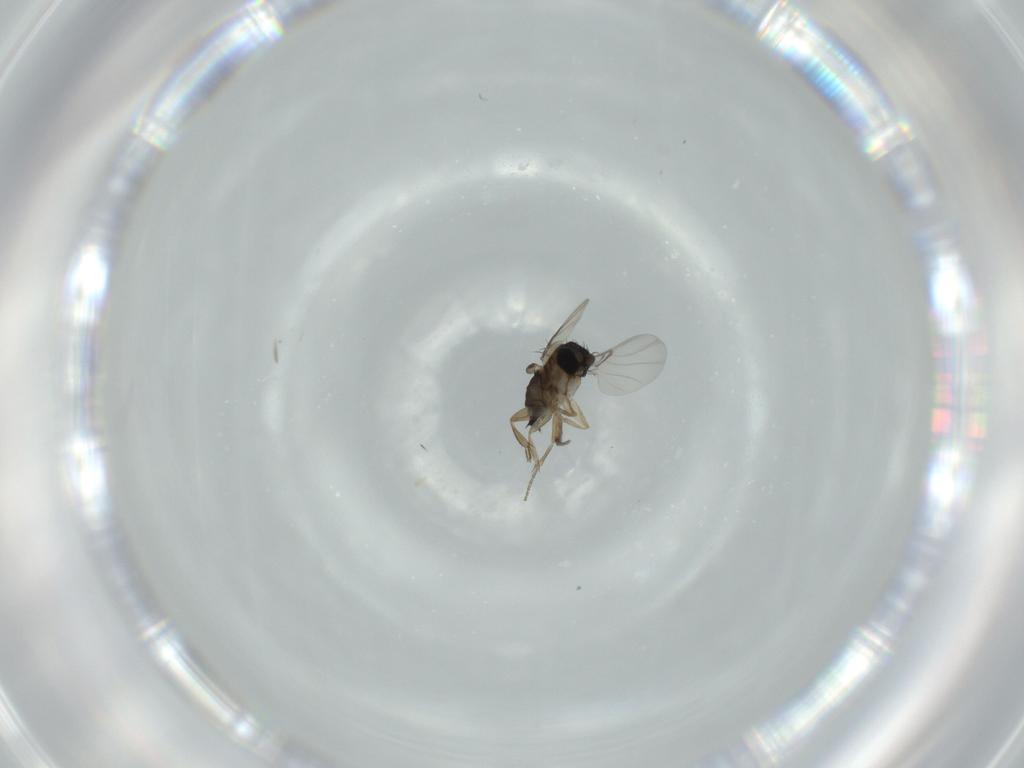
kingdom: Animalia
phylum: Arthropoda
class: Insecta
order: Diptera
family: Phoridae
